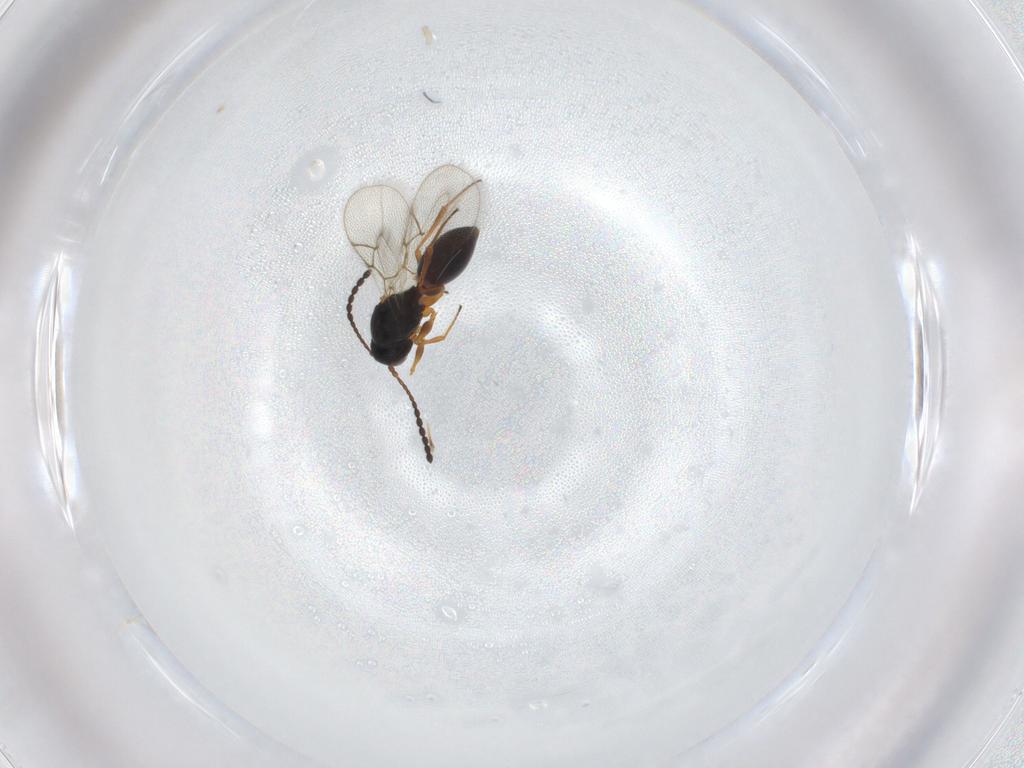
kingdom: Animalia
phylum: Arthropoda
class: Insecta
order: Hymenoptera
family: Figitidae
